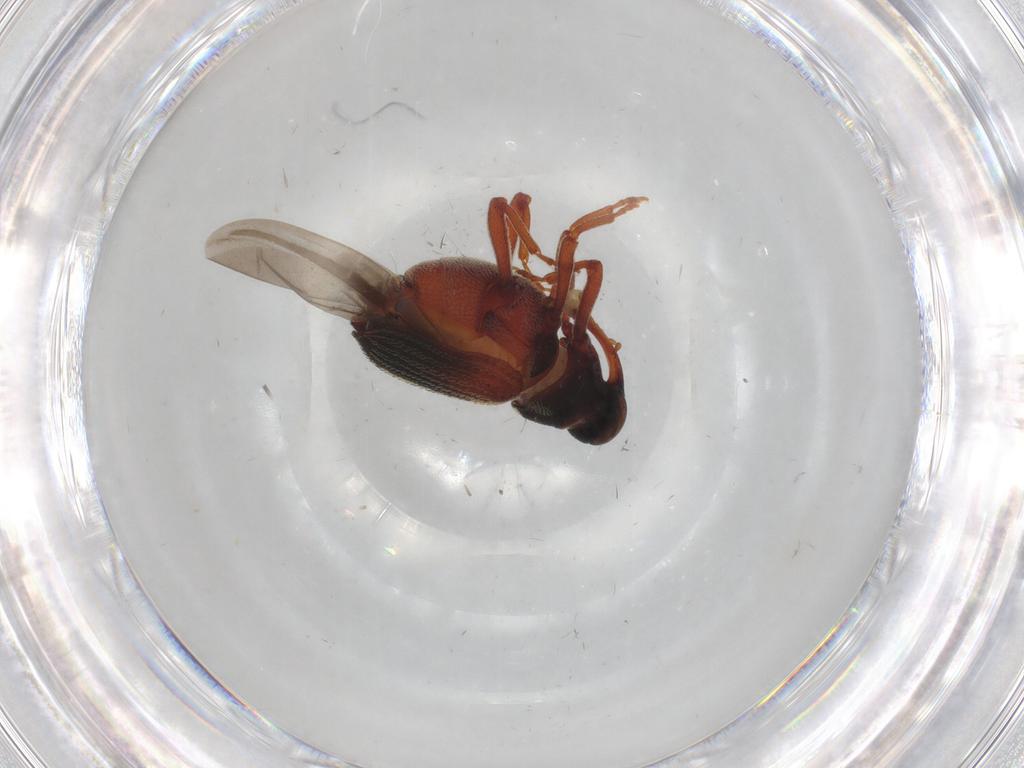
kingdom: Animalia
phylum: Arthropoda
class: Insecta
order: Coleoptera
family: Curculionidae
